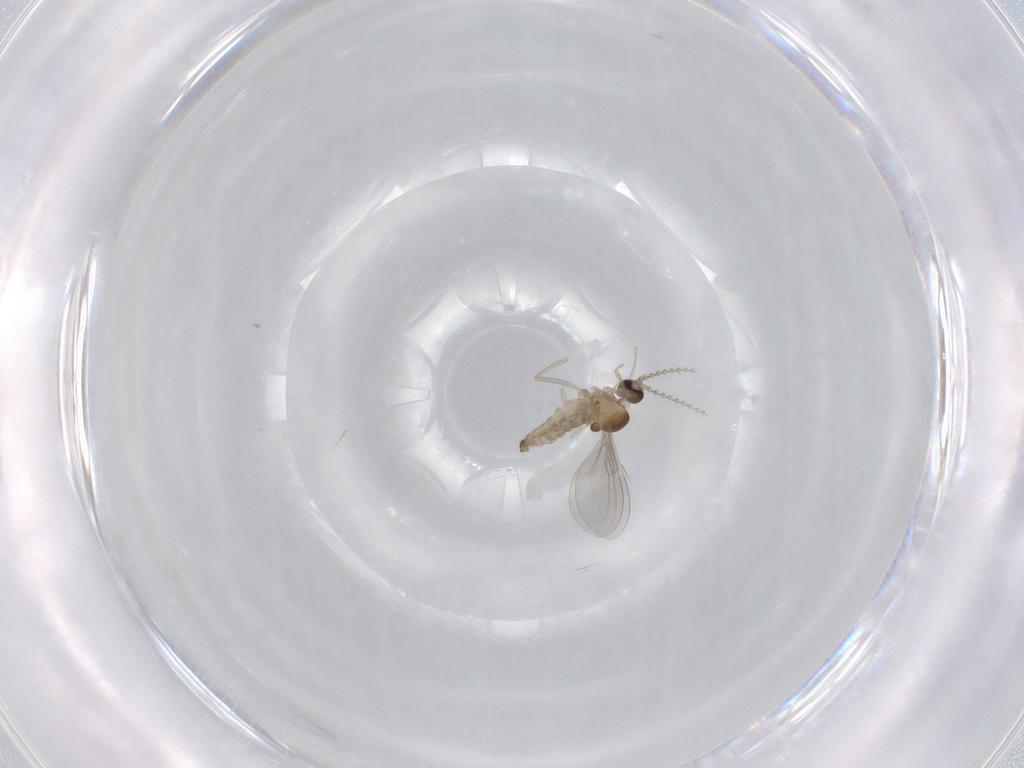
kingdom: Animalia
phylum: Arthropoda
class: Insecta
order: Diptera
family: Cecidomyiidae
